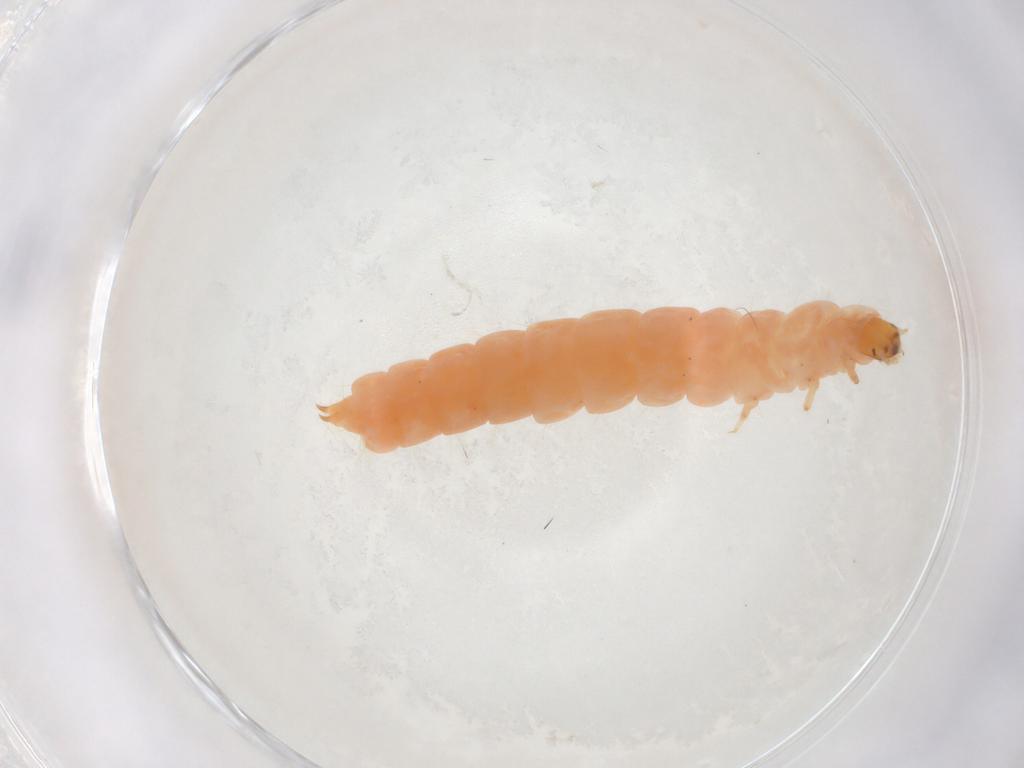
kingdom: Animalia
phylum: Arthropoda
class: Insecta
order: Coleoptera
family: Melyridae
